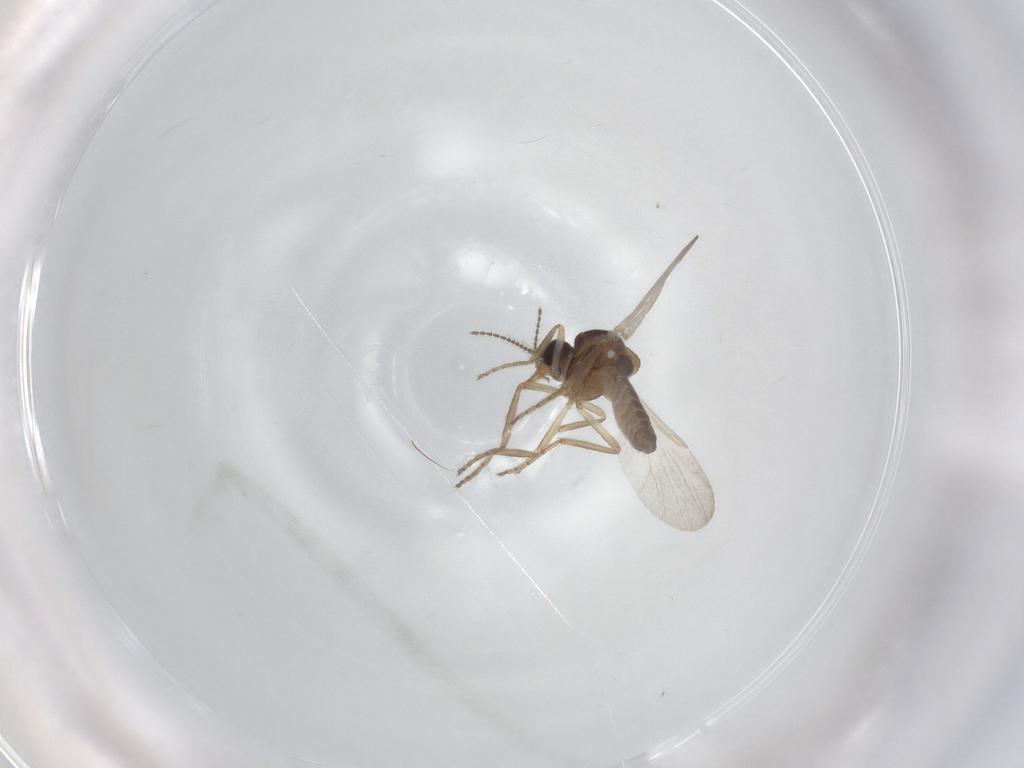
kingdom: Animalia
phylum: Arthropoda
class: Insecta
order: Diptera
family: Ceratopogonidae
